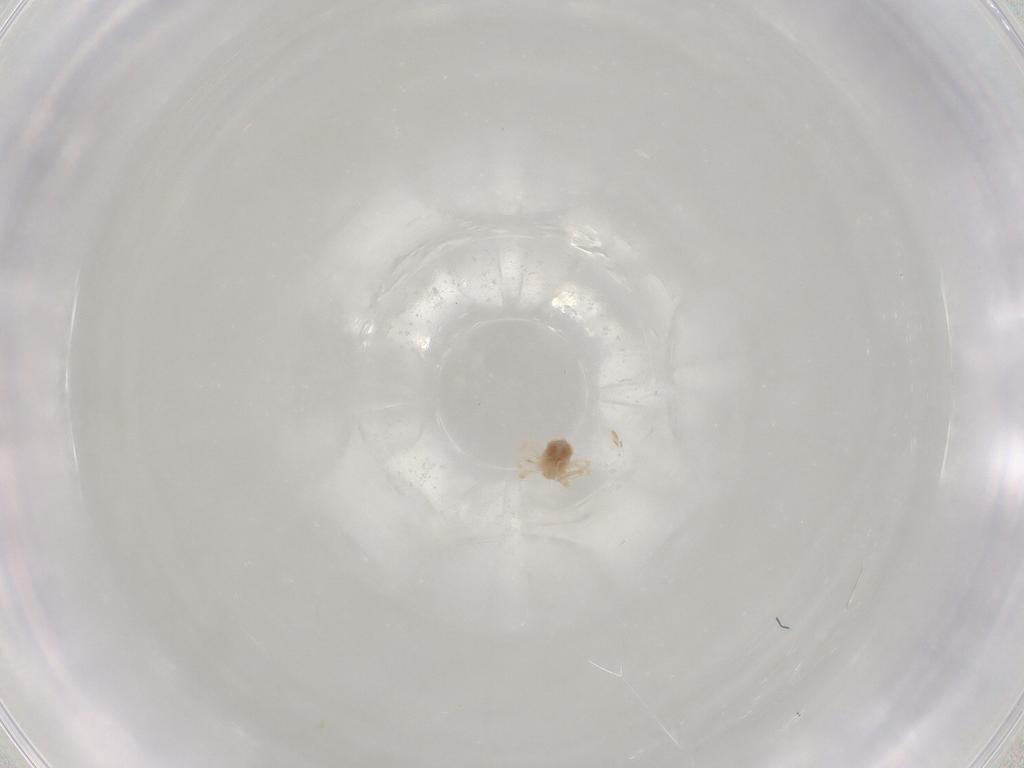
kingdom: Animalia
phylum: Arthropoda
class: Arachnida
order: Trombidiformes
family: Anystidae
